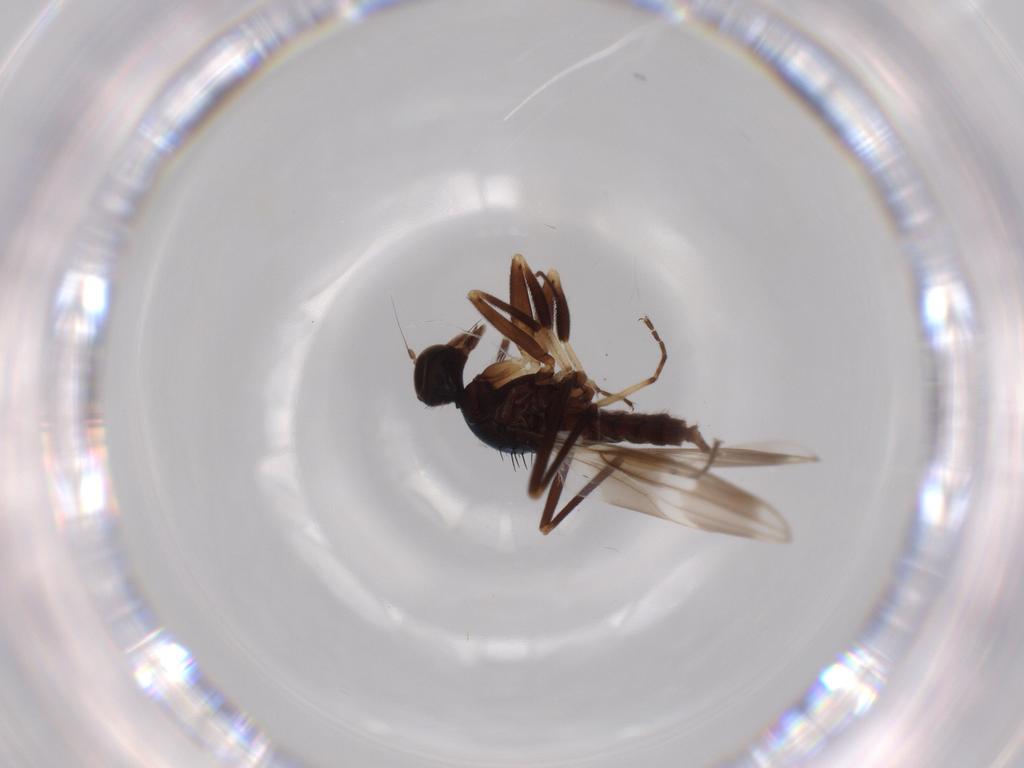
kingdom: Animalia
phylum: Arthropoda
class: Insecta
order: Diptera
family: Hybotidae
